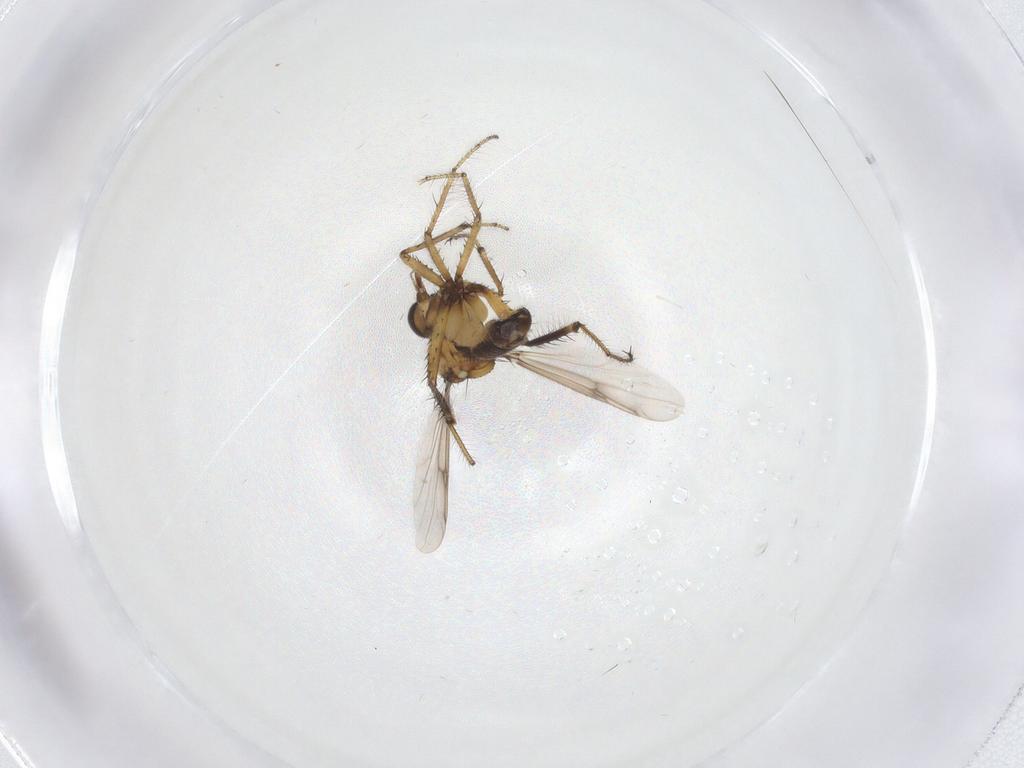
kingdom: Animalia
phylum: Arthropoda
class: Insecta
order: Diptera
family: Ceratopogonidae
